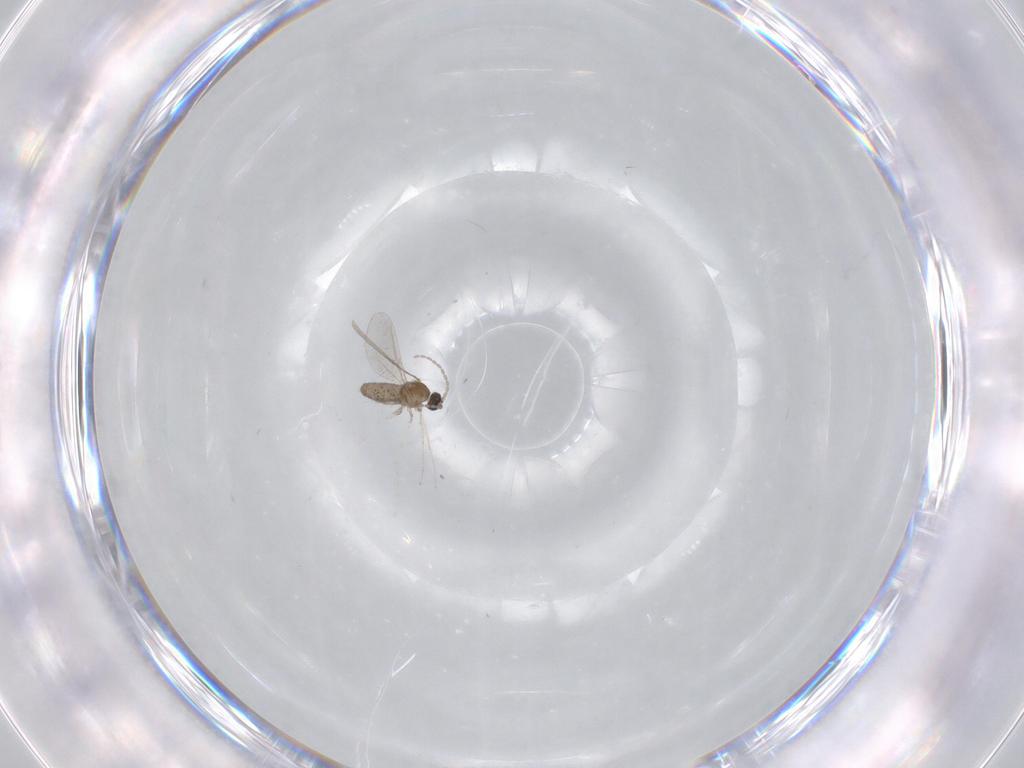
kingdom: Animalia
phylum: Arthropoda
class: Insecta
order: Diptera
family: Cecidomyiidae
